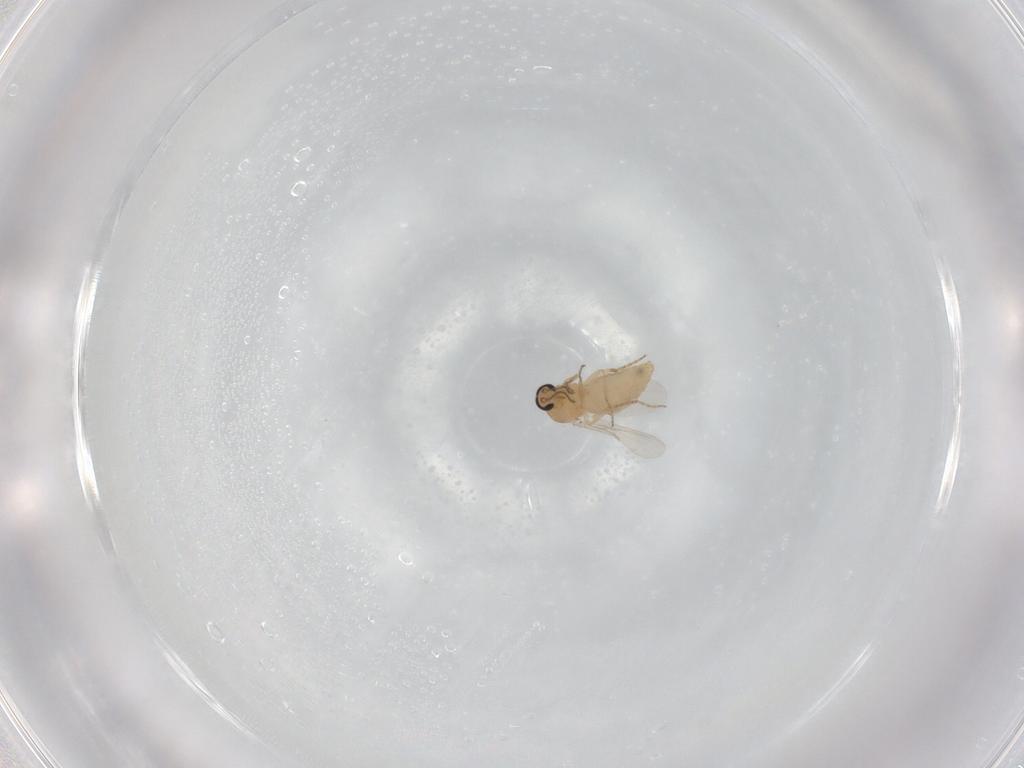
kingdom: Animalia
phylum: Arthropoda
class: Insecta
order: Diptera
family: Ceratopogonidae
